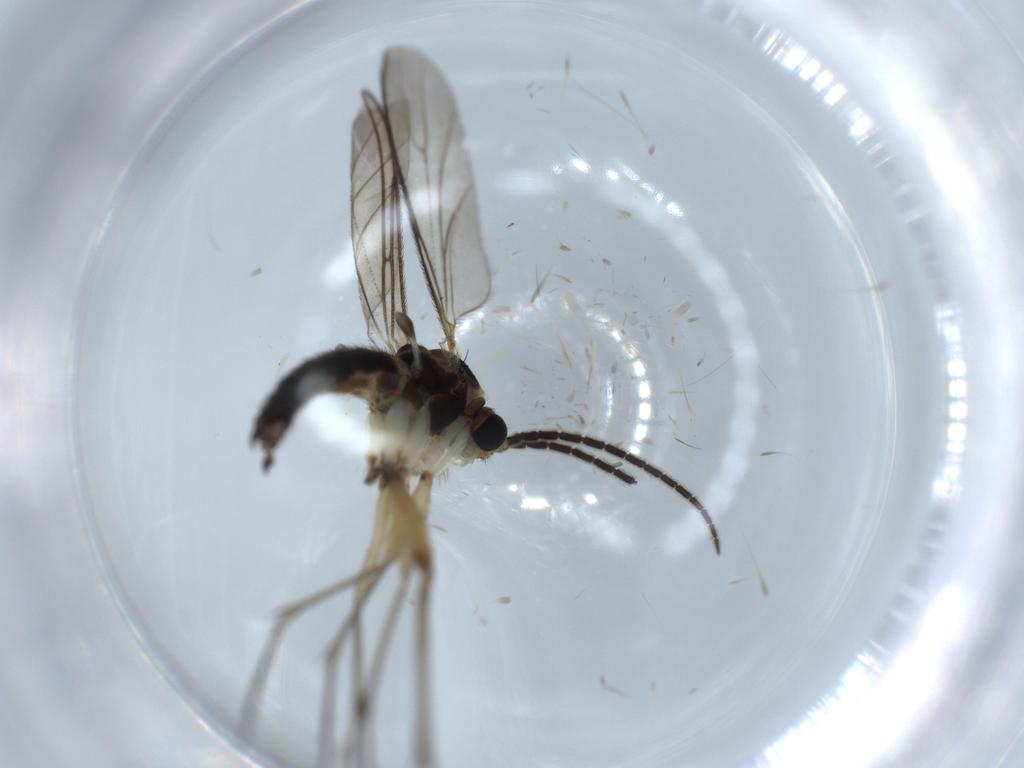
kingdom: Animalia
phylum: Arthropoda
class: Insecta
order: Diptera
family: Sciaridae
